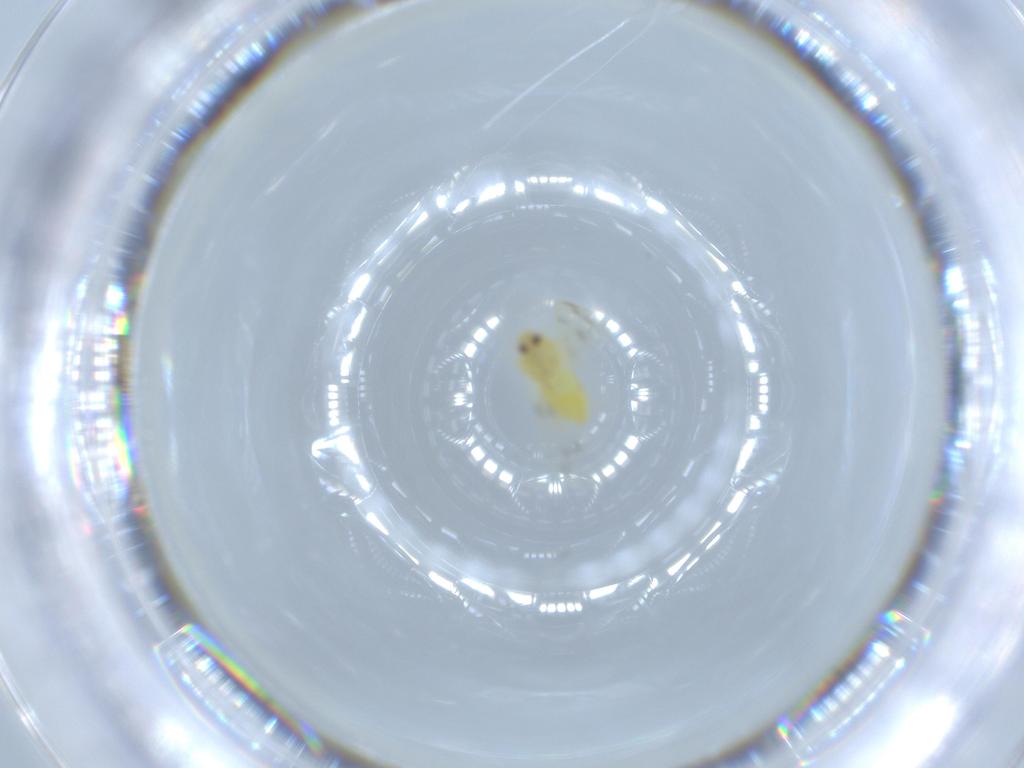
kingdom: Animalia
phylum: Arthropoda
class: Insecta
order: Hemiptera
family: Aleyrodidae
